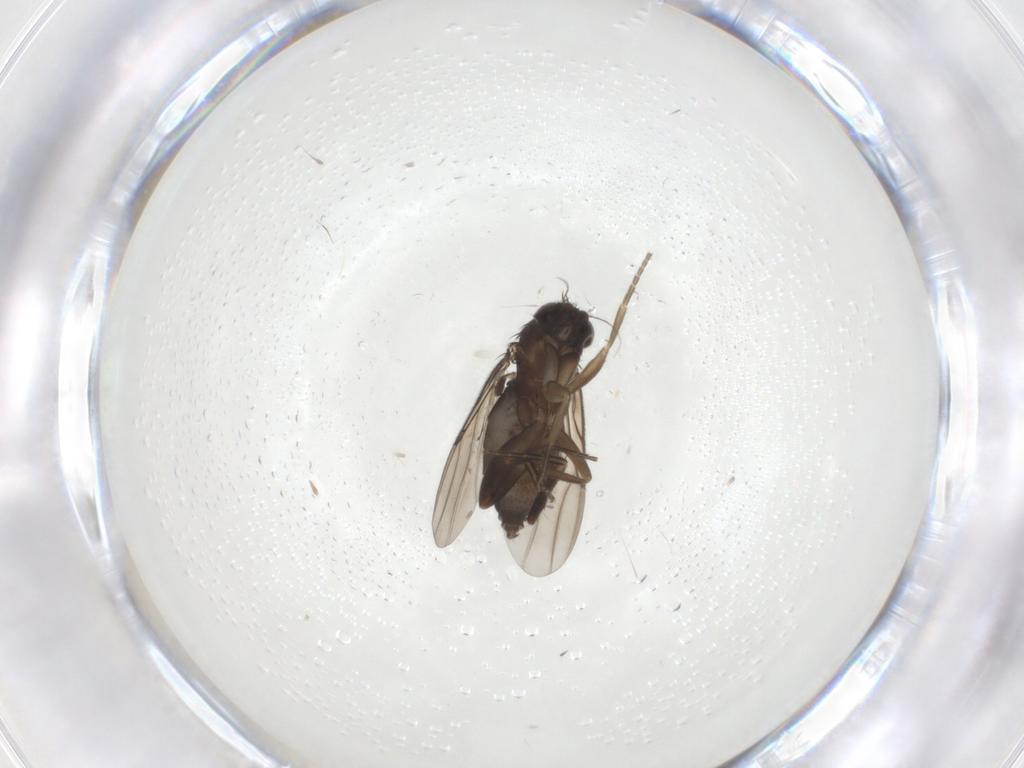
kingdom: Animalia
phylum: Arthropoda
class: Insecta
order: Diptera
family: Phoridae
